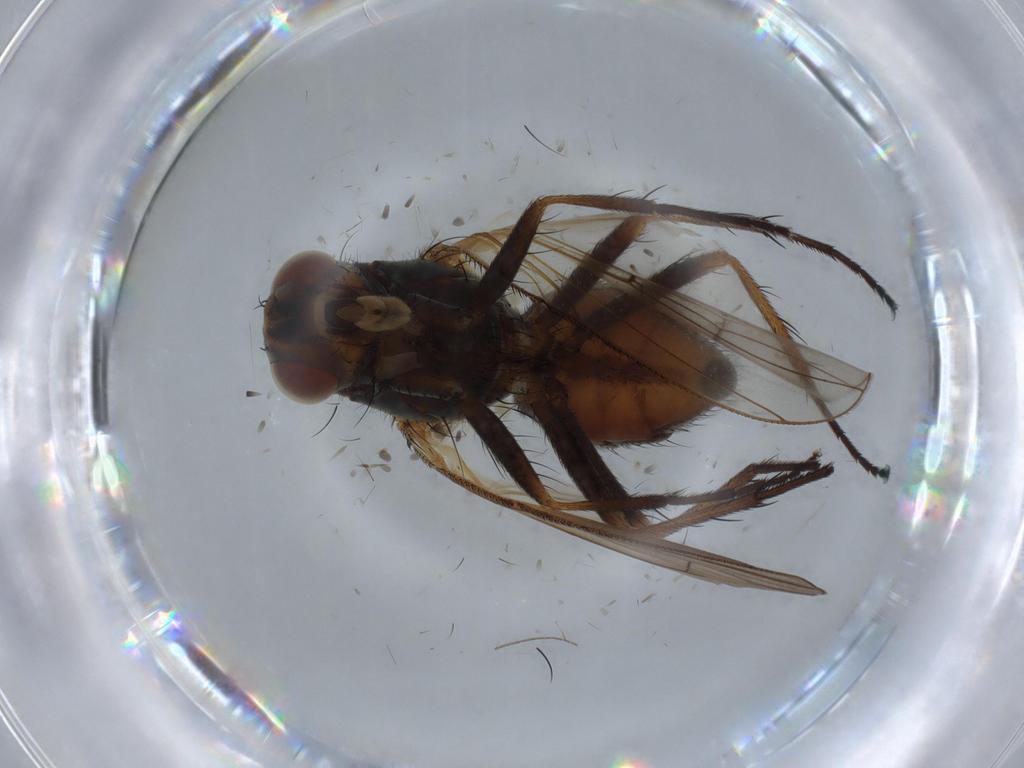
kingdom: Animalia
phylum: Arthropoda
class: Insecta
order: Diptera
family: Anthomyiidae
